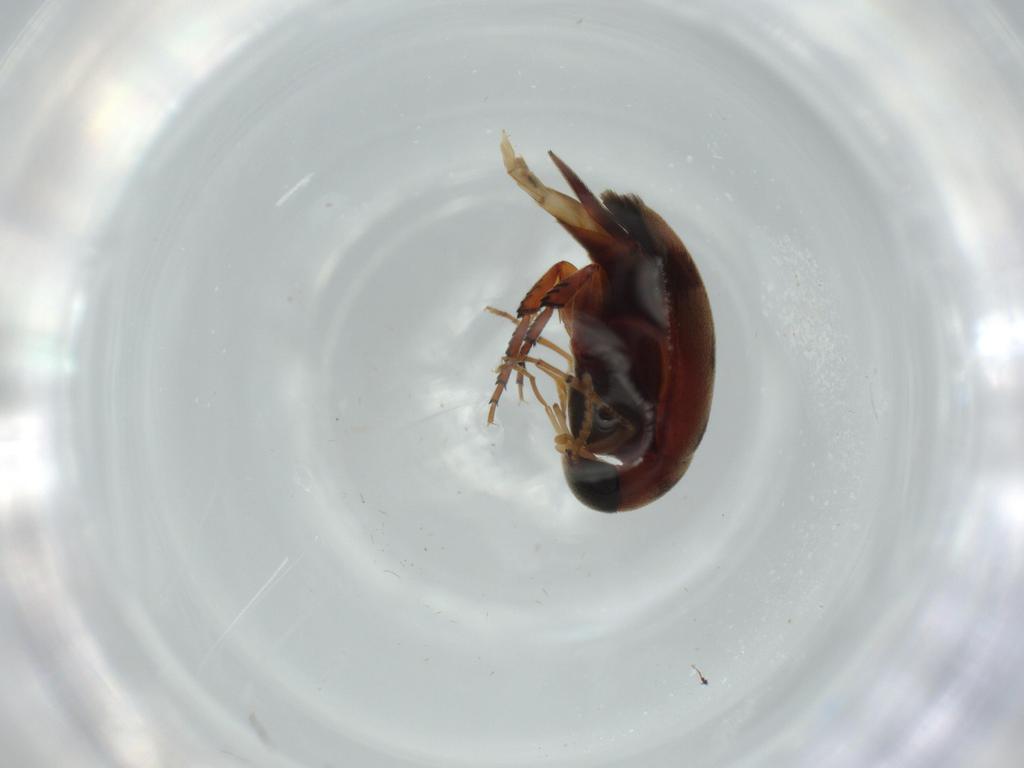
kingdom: Animalia
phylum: Arthropoda
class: Insecta
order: Coleoptera
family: Mordellidae
